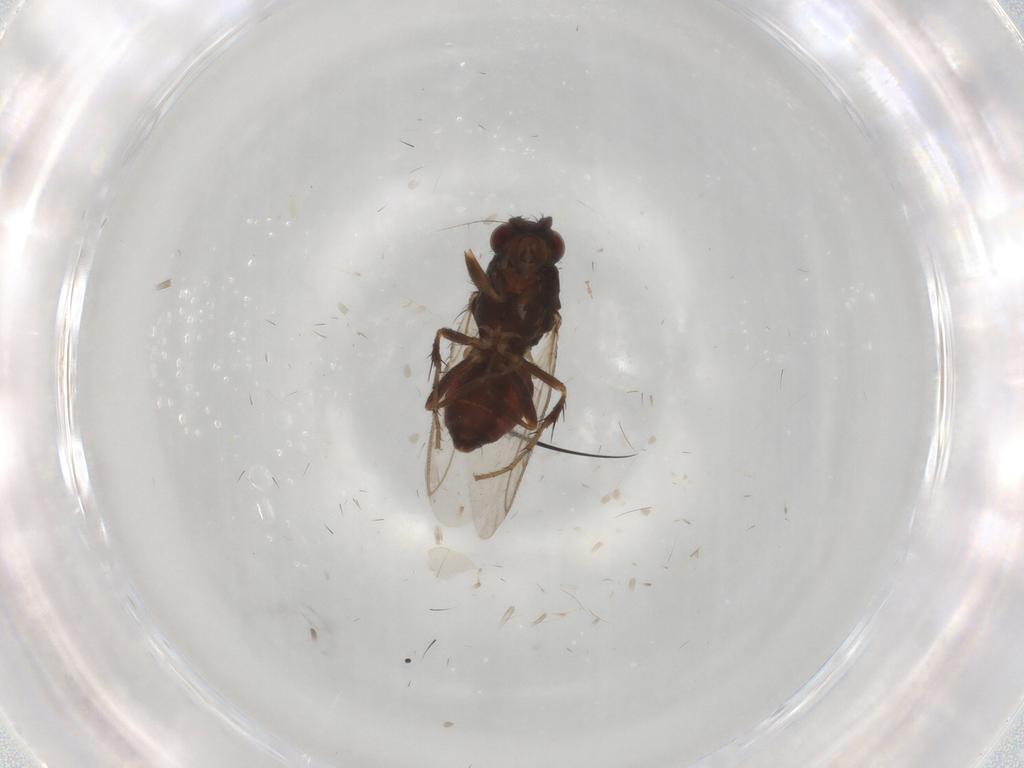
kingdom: Animalia
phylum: Arthropoda
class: Insecta
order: Diptera
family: Sphaeroceridae
